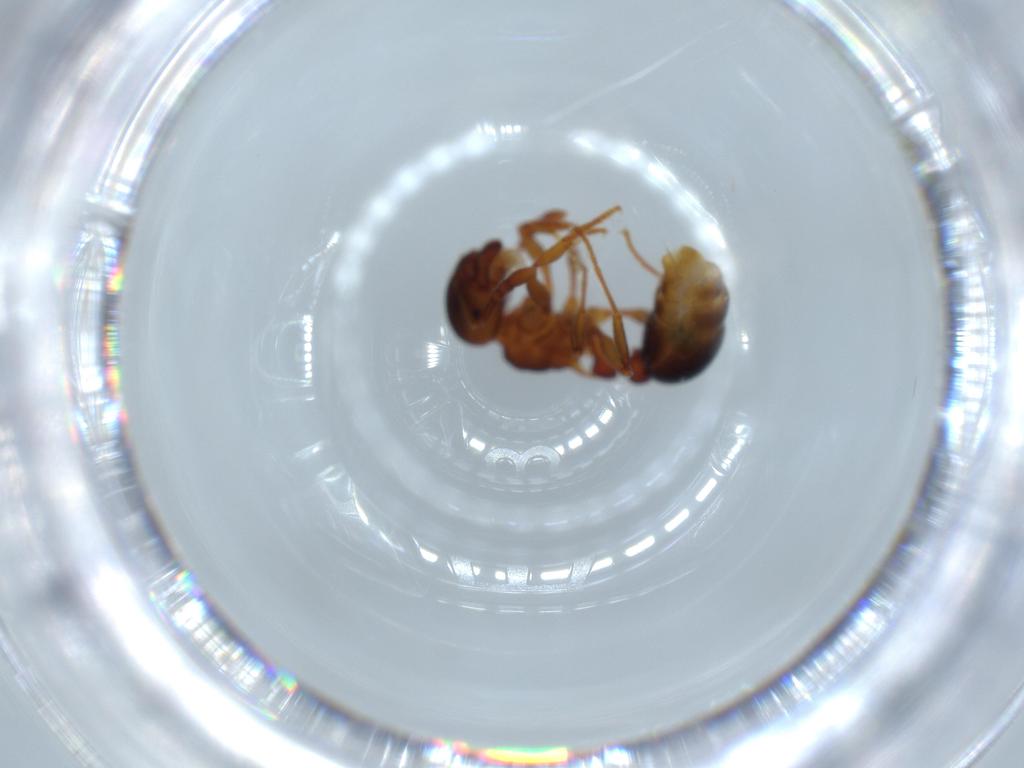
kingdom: Animalia
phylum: Arthropoda
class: Insecta
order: Hymenoptera
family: Formicidae
